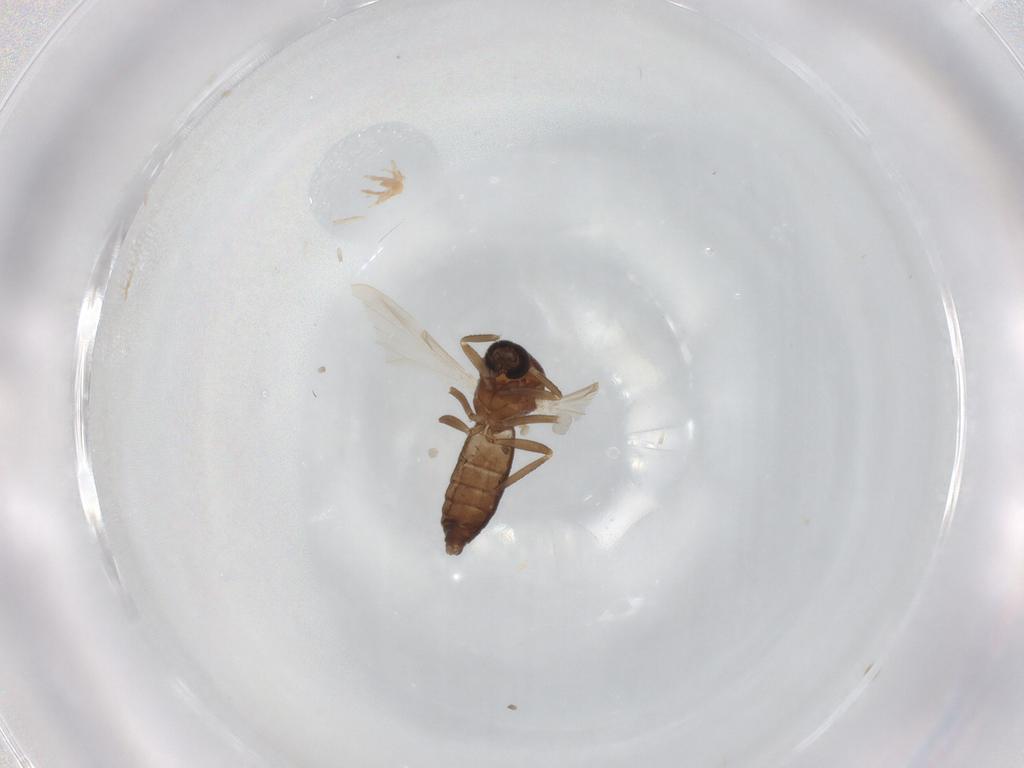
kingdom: Animalia
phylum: Arthropoda
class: Insecta
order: Diptera
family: Ceratopogonidae
